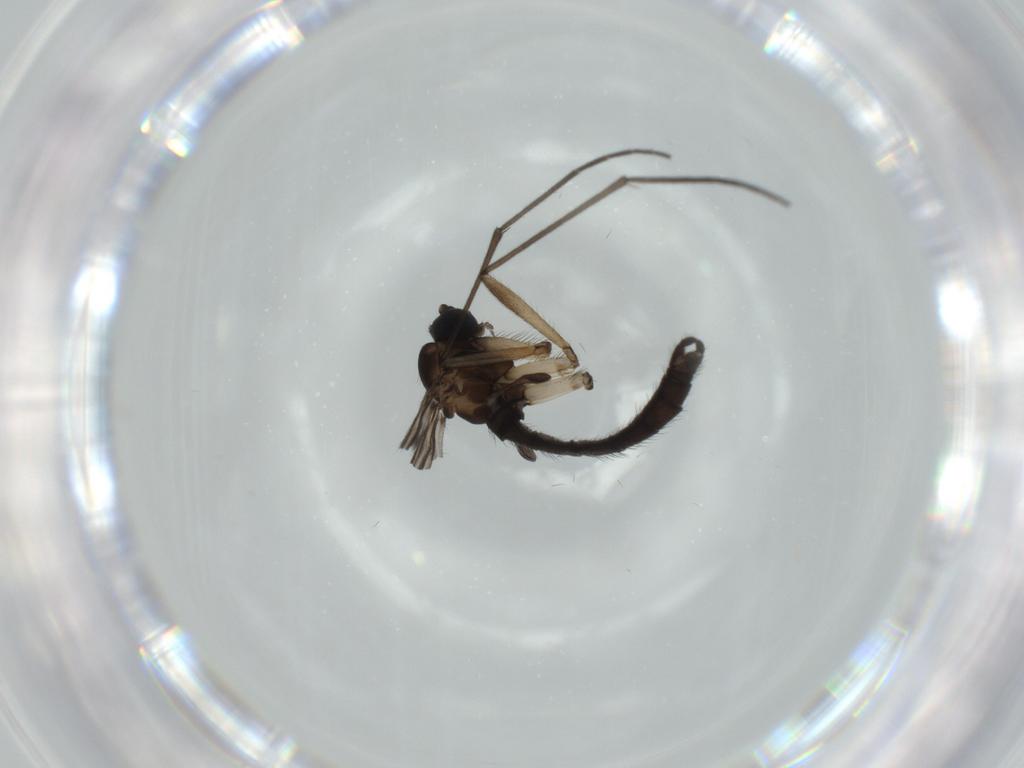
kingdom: Animalia
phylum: Arthropoda
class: Insecta
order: Diptera
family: Sciaridae
